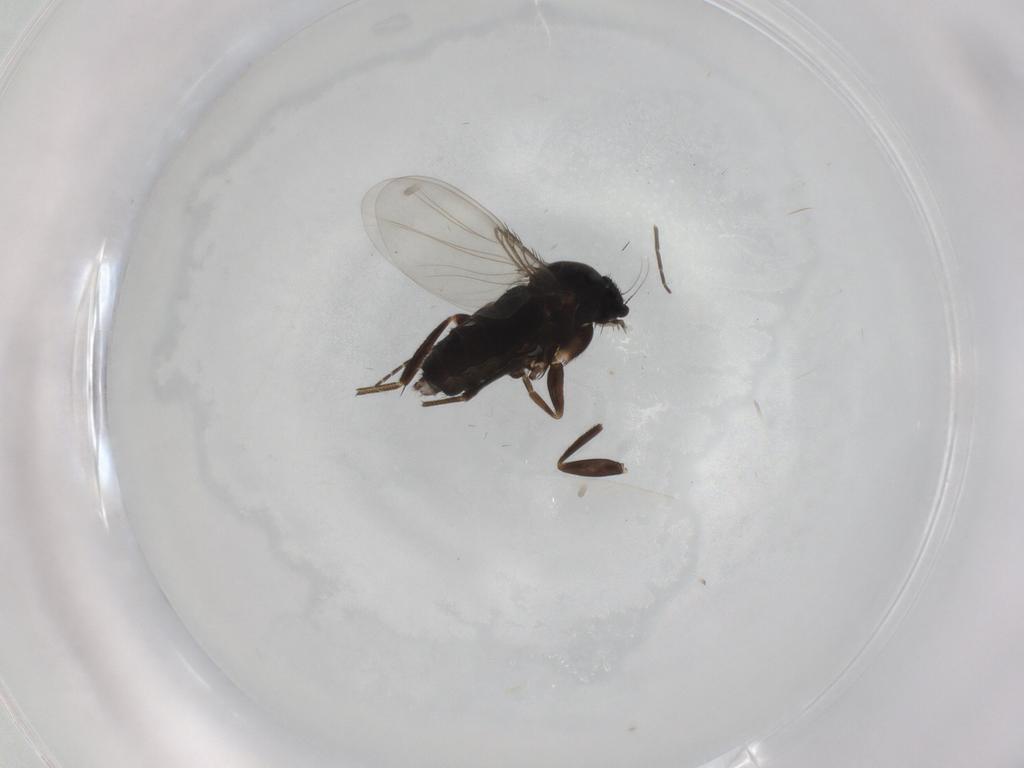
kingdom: Animalia
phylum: Arthropoda
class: Insecta
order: Diptera
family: Phoridae
